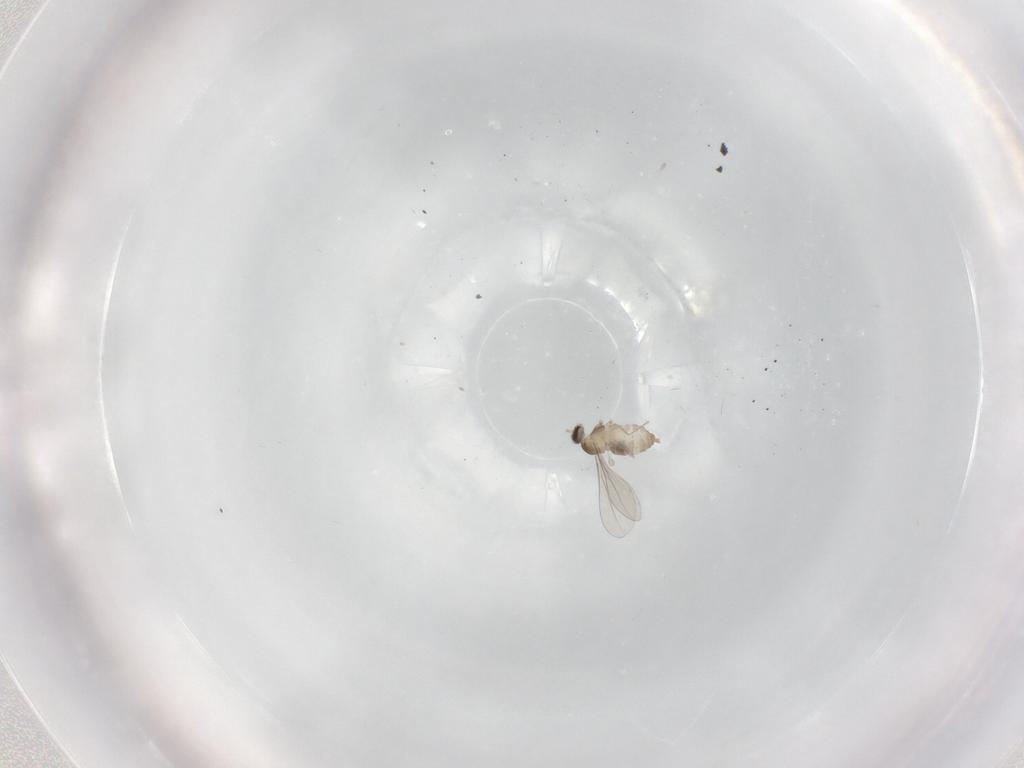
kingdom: Animalia
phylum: Arthropoda
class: Insecta
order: Diptera
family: Cecidomyiidae
